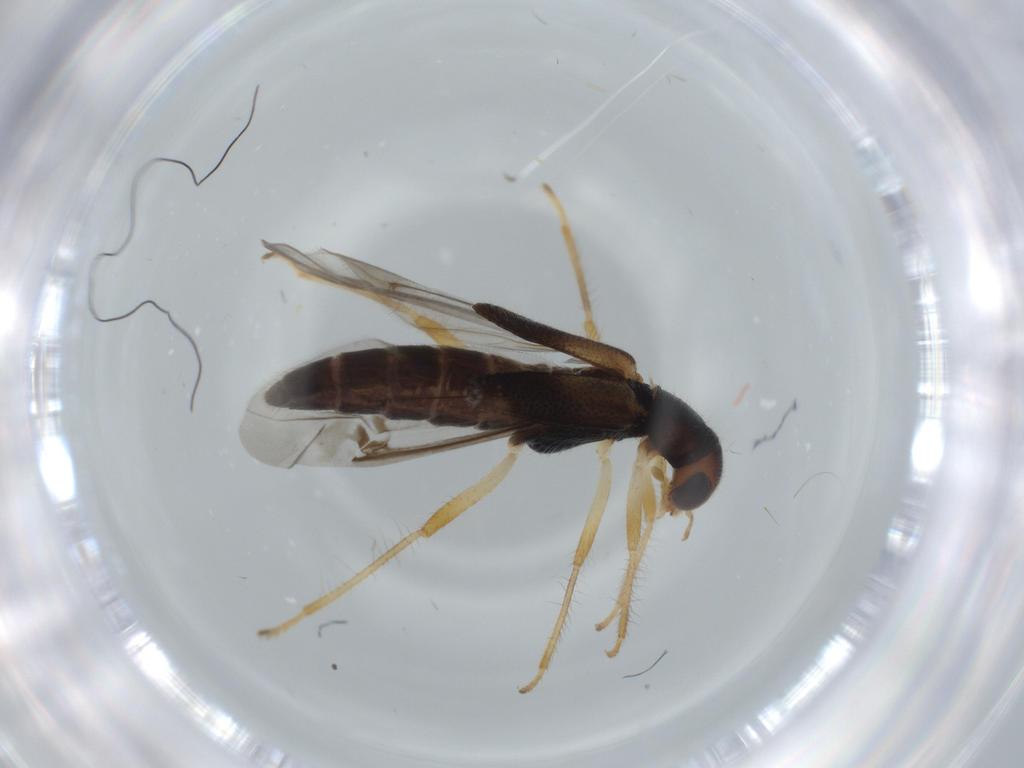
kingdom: Animalia
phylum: Arthropoda
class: Insecta
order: Coleoptera
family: Cleridae
